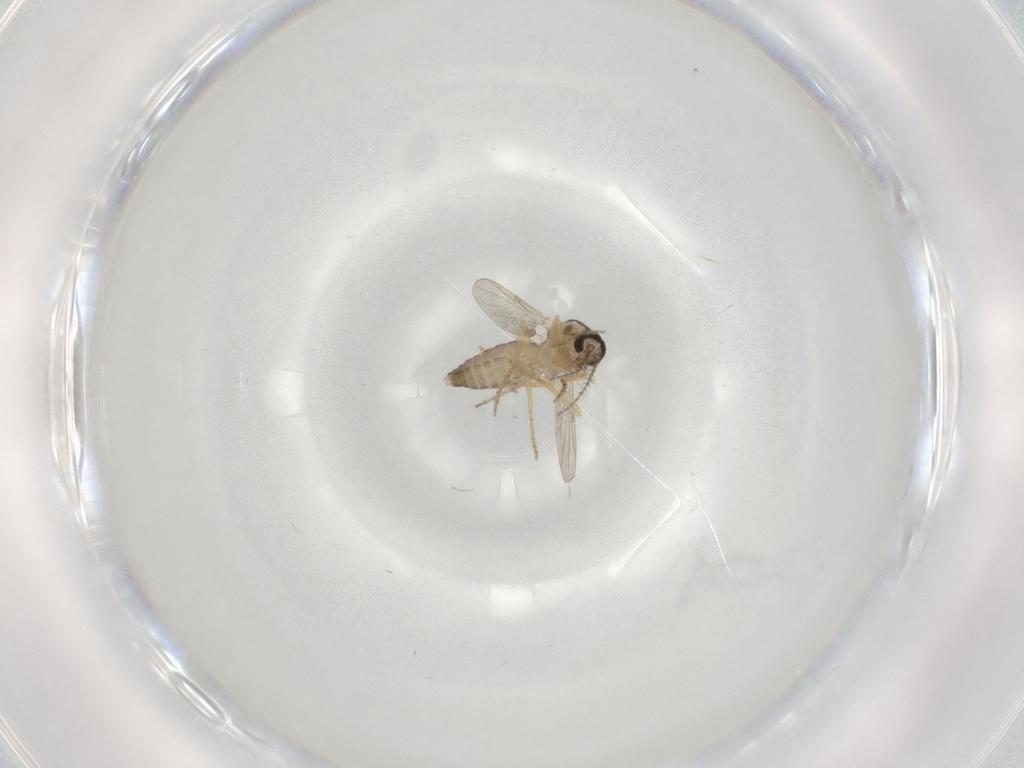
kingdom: Animalia
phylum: Arthropoda
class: Insecta
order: Diptera
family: Ceratopogonidae
